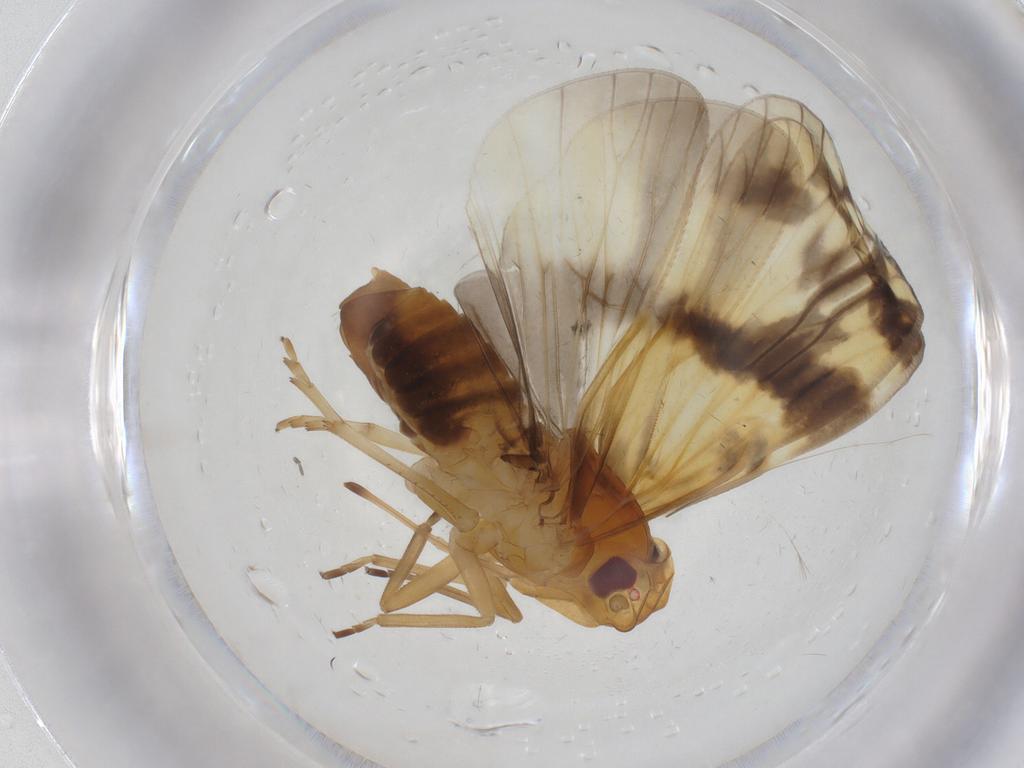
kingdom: Animalia
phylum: Arthropoda
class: Insecta
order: Hemiptera
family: Cixiidae
